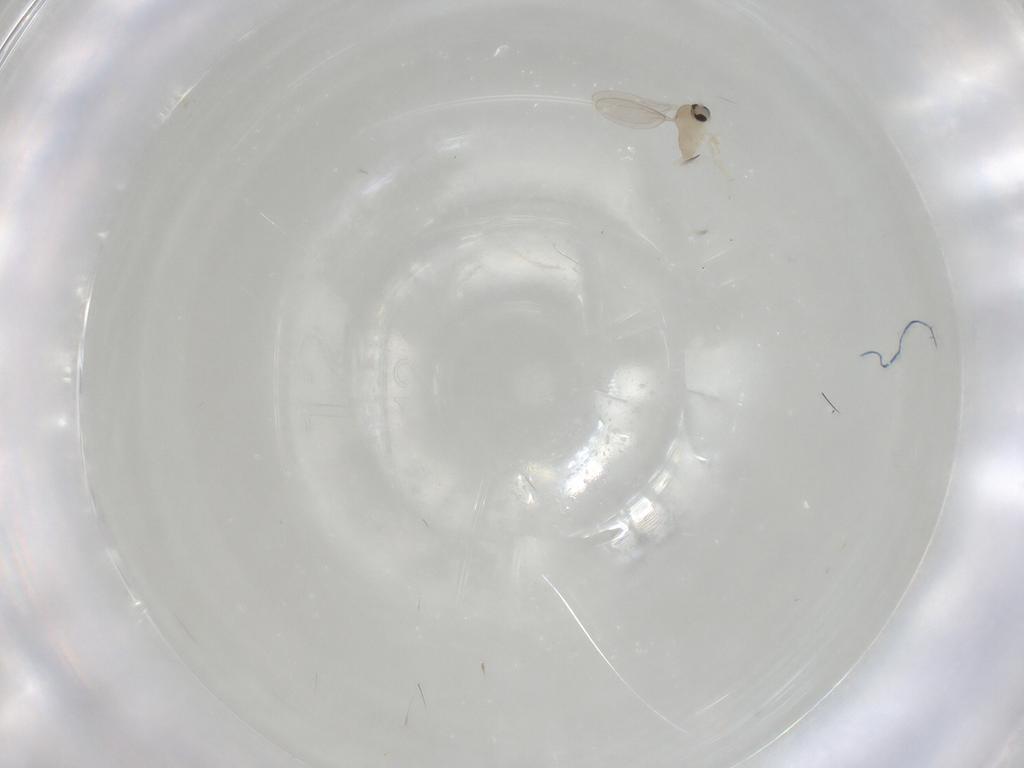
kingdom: Animalia
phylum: Arthropoda
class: Insecta
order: Diptera
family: Cecidomyiidae
